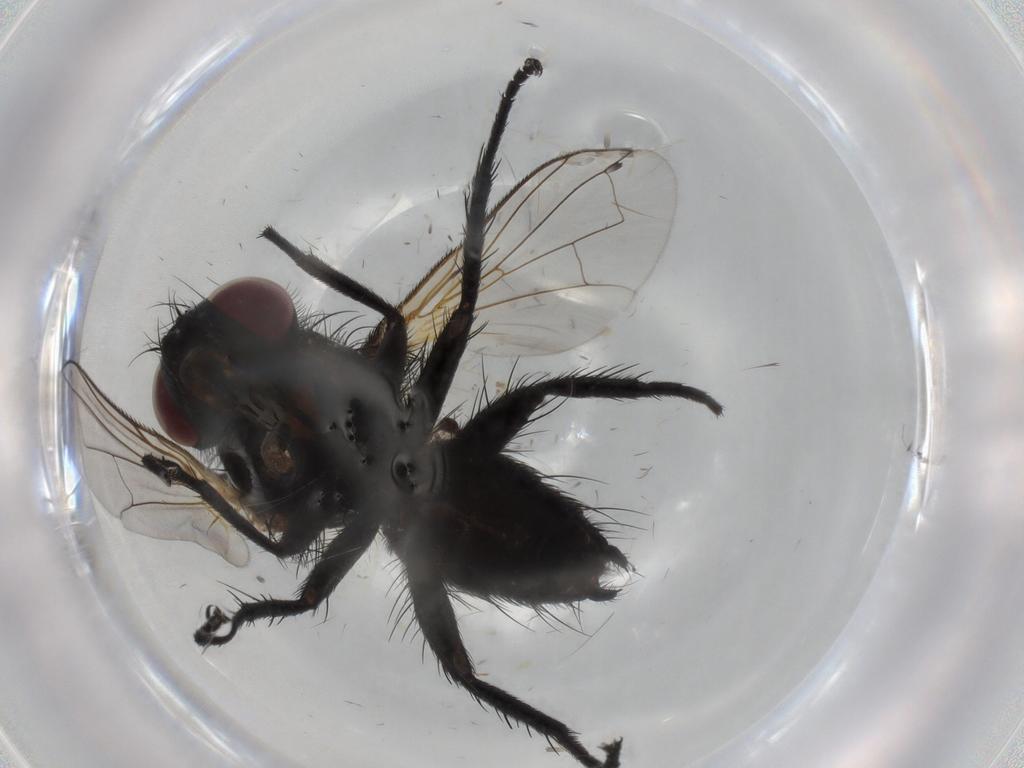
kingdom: Animalia
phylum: Arthropoda
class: Insecta
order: Diptera
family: Tachinidae
